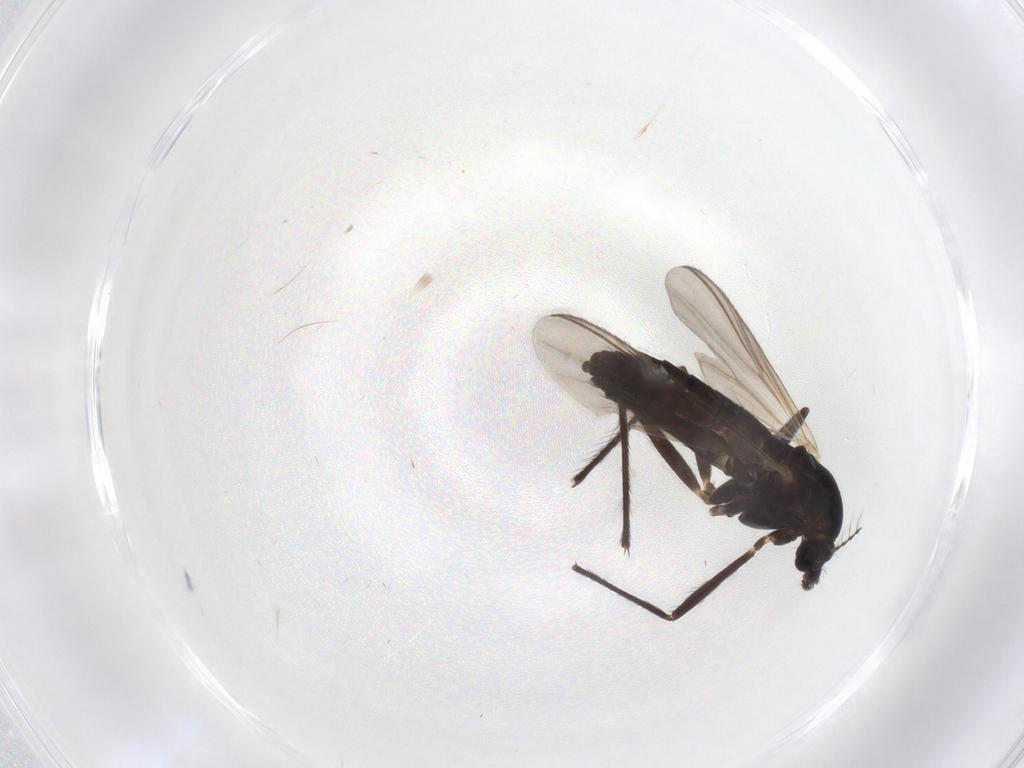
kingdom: Animalia
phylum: Arthropoda
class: Insecta
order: Diptera
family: Chironomidae
